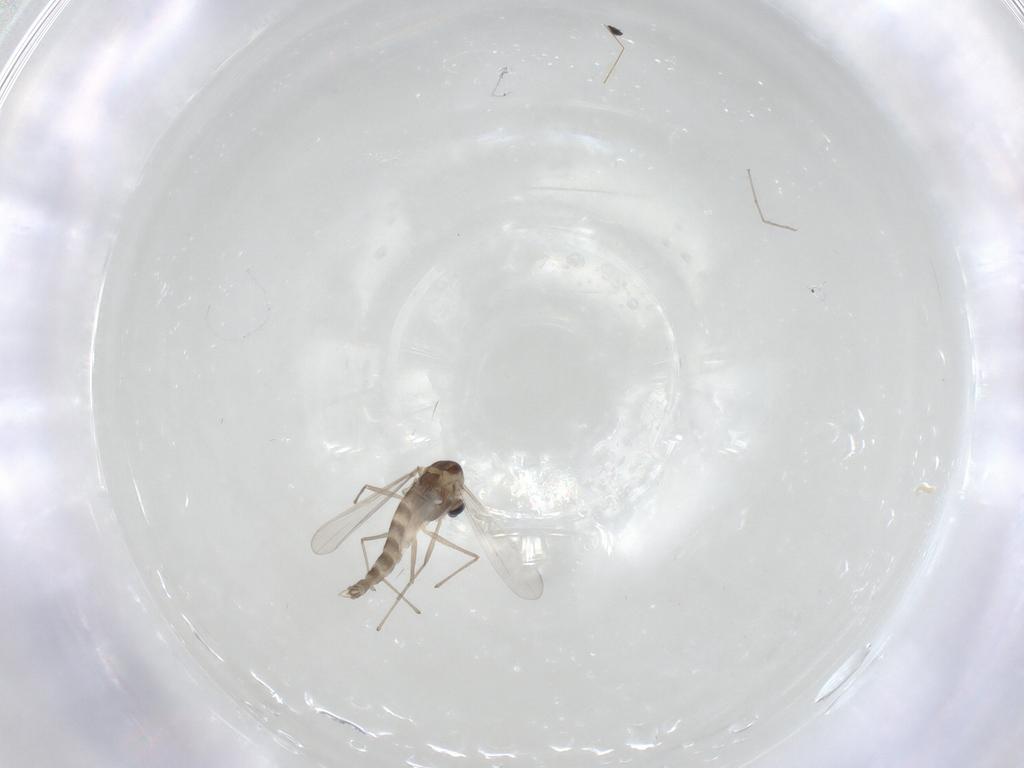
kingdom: Animalia
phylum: Arthropoda
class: Insecta
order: Diptera
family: Chironomidae
